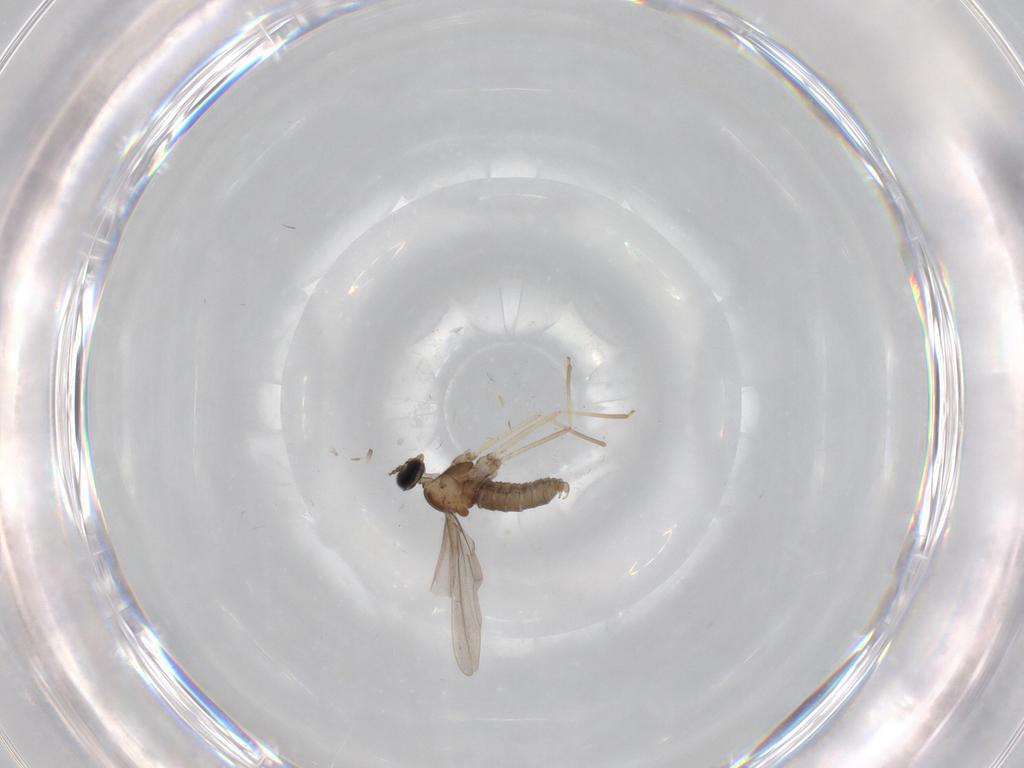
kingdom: Animalia
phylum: Arthropoda
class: Insecta
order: Diptera
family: Cecidomyiidae
